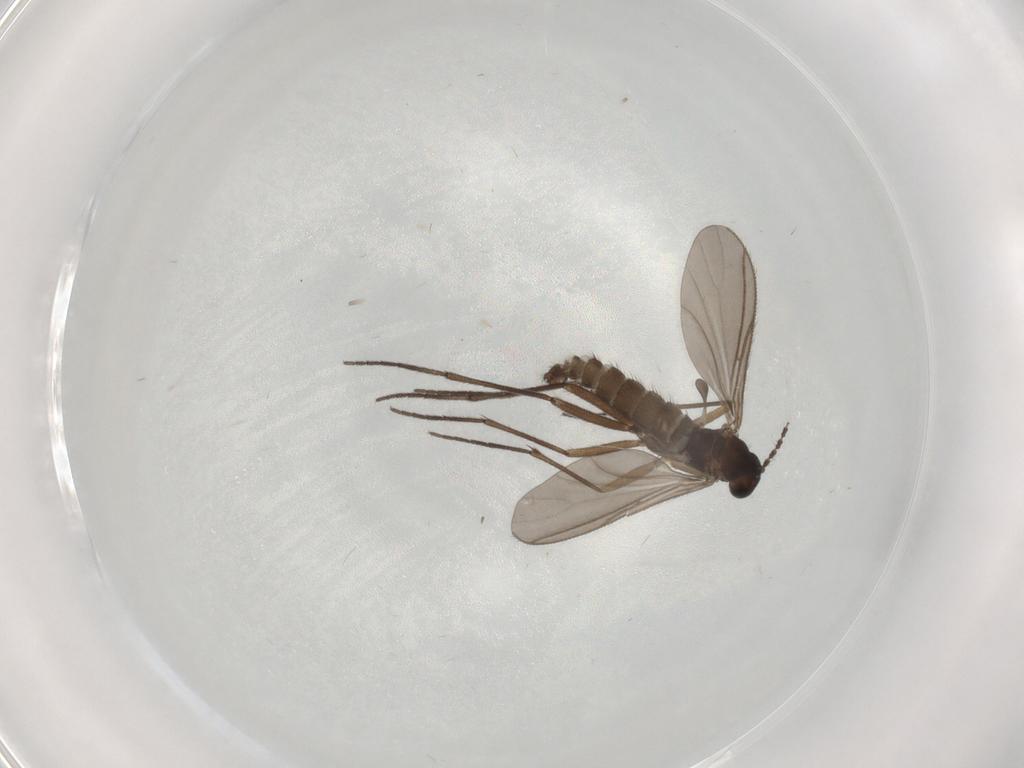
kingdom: Animalia
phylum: Arthropoda
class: Insecta
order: Diptera
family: Sciaridae
